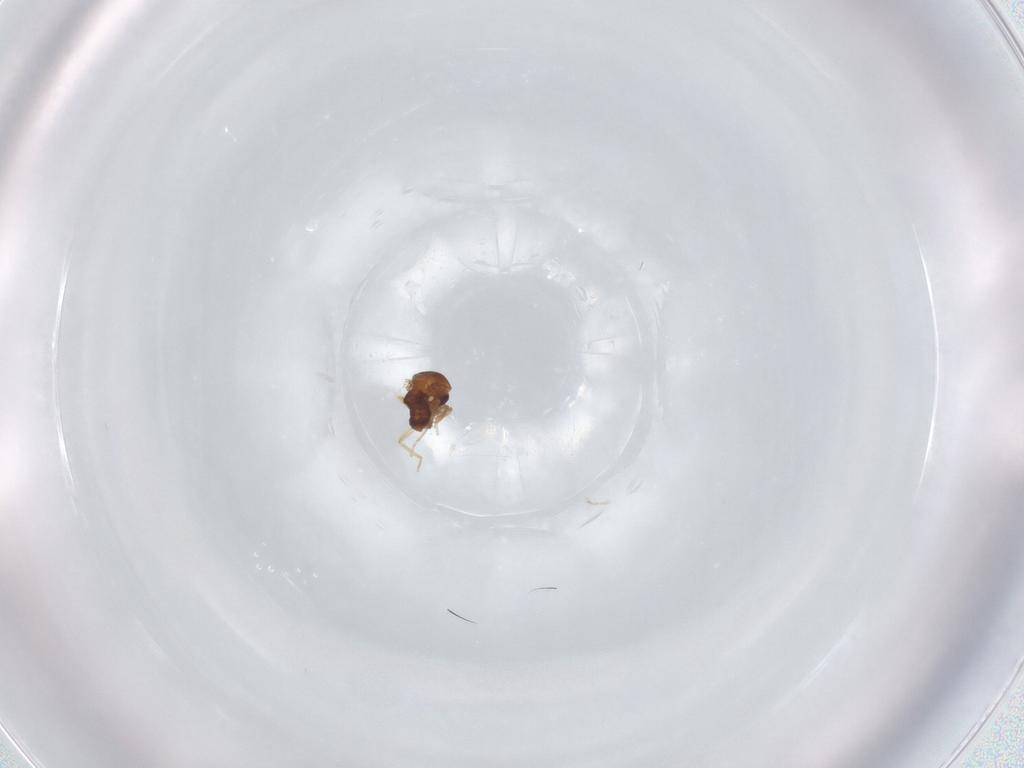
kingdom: Animalia
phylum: Arthropoda
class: Insecta
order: Diptera
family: Ceratopogonidae
